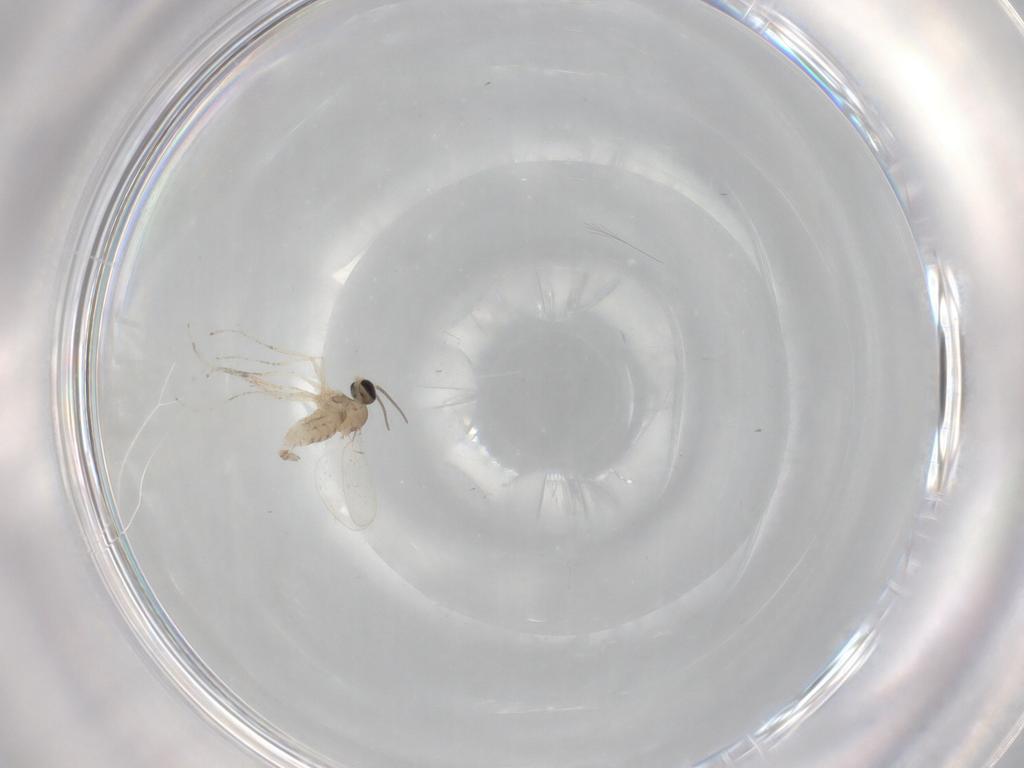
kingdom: Animalia
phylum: Arthropoda
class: Insecta
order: Diptera
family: Cecidomyiidae
